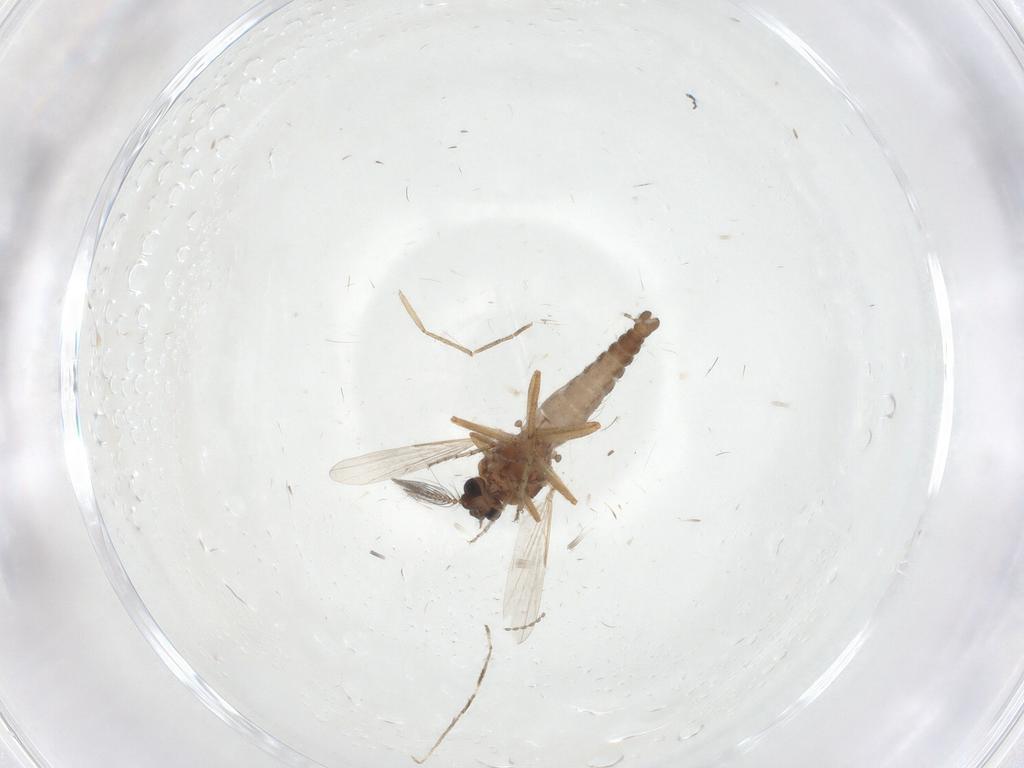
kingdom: Animalia
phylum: Arthropoda
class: Insecta
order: Diptera
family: Ceratopogonidae
